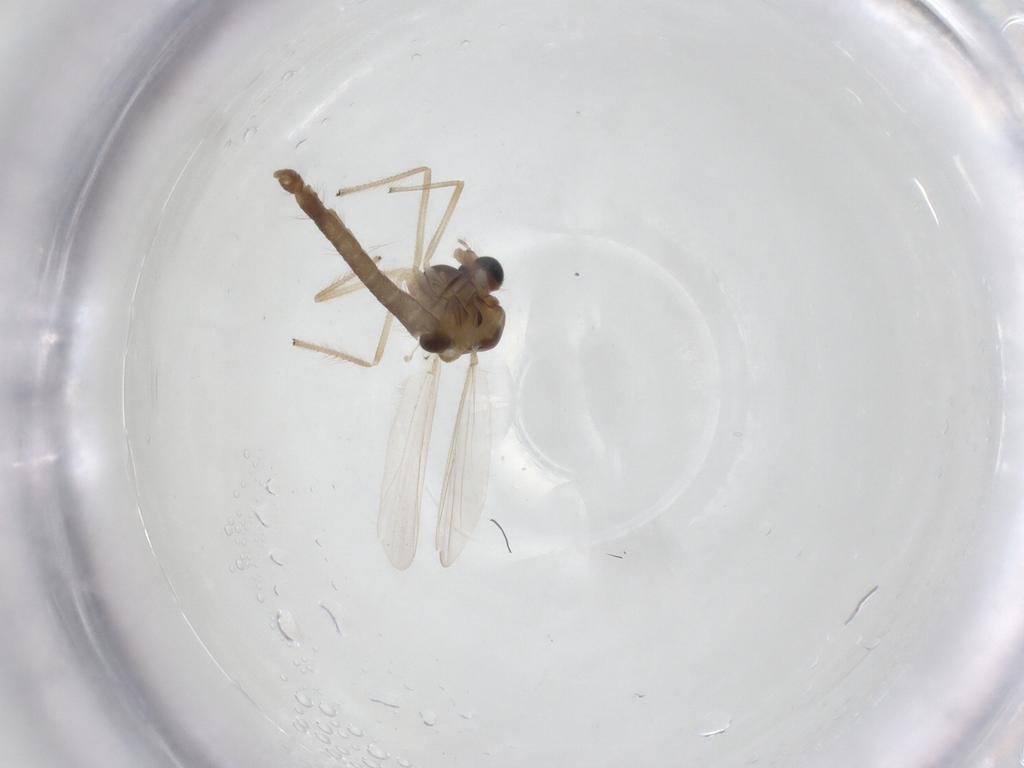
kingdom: Animalia
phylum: Arthropoda
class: Insecta
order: Diptera
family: Chironomidae
